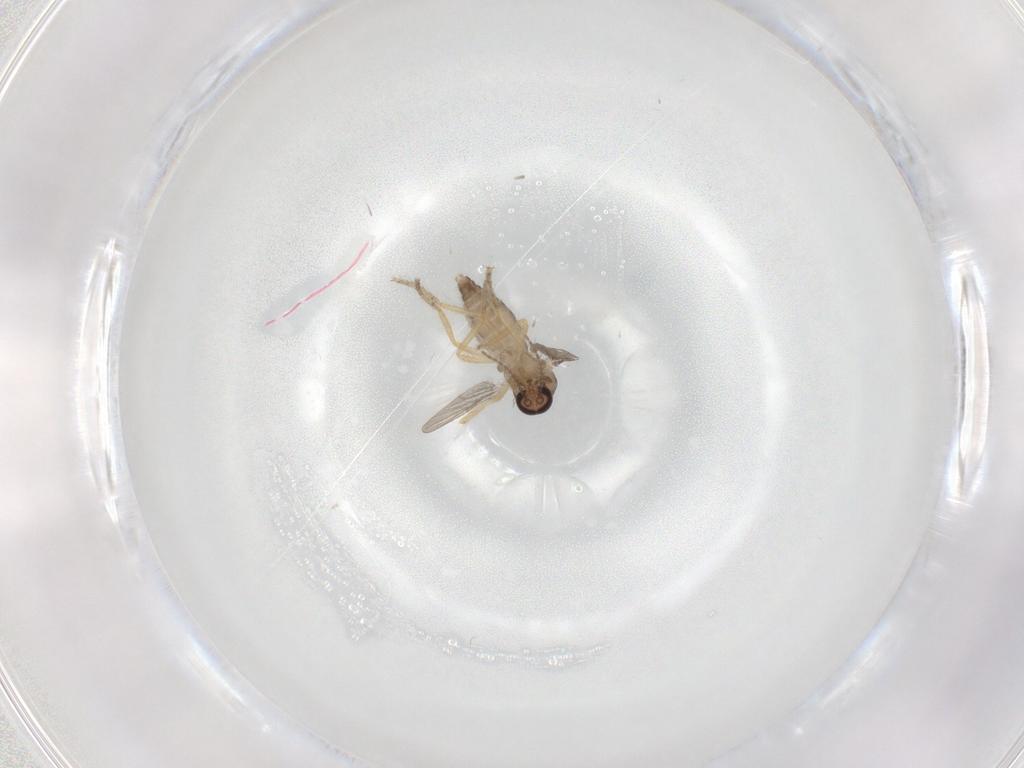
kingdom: Animalia
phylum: Arthropoda
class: Insecta
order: Diptera
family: Ceratopogonidae
